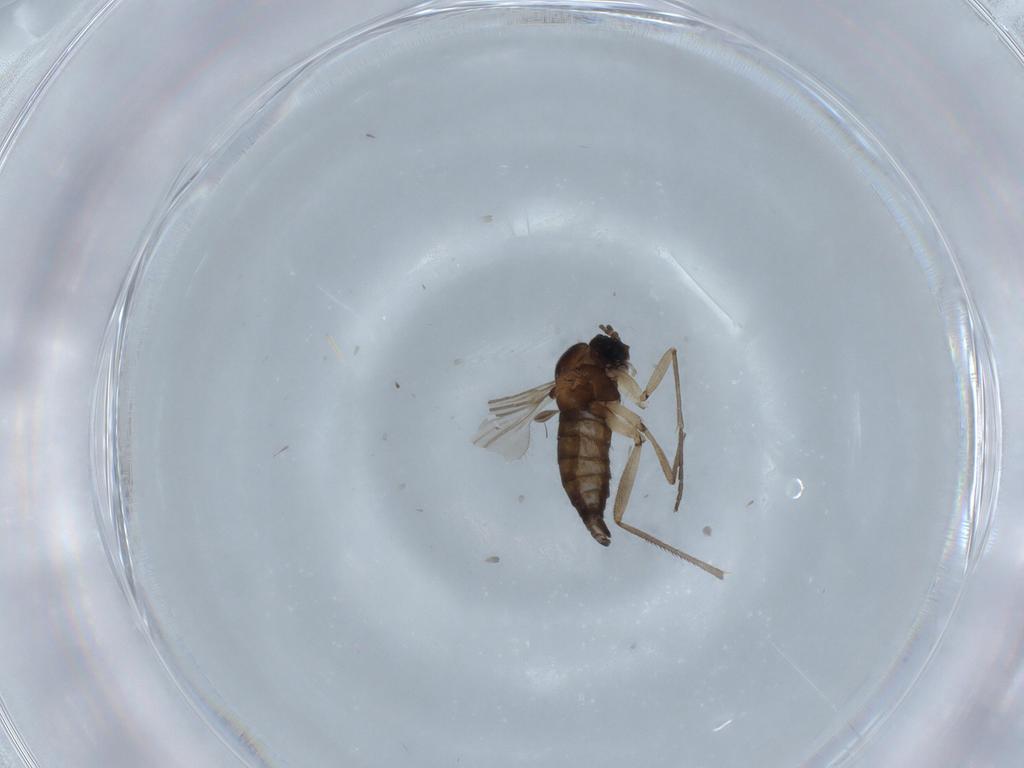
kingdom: Animalia
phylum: Arthropoda
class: Insecta
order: Diptera
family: Sciaridae
